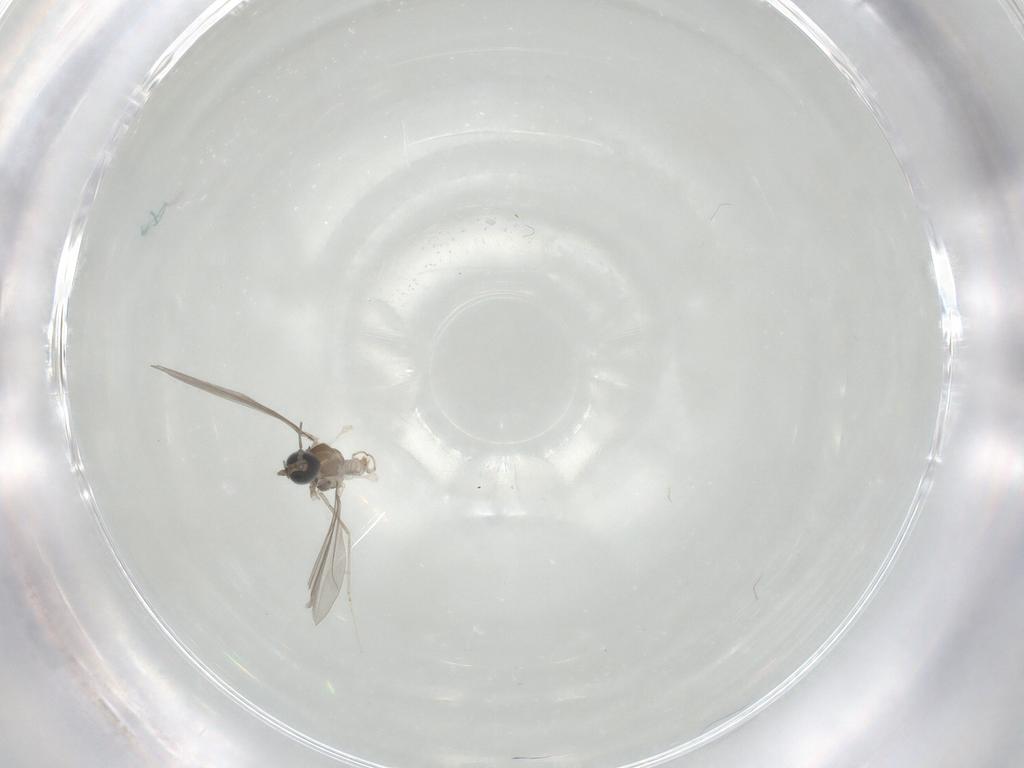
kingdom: Animalia
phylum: Arthropoda
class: Insecta
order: Diptera
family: Cecidomyiidae
